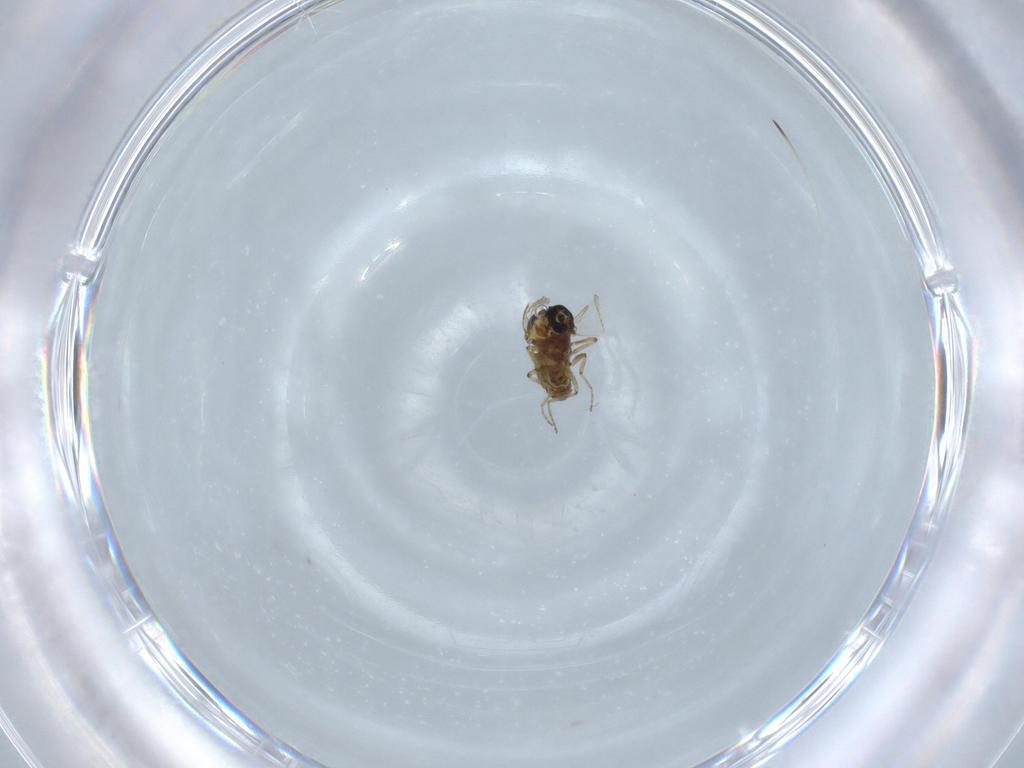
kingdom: Animalia
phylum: Arthropoda
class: Insecta
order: Diptera
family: Ceratopogonidae
